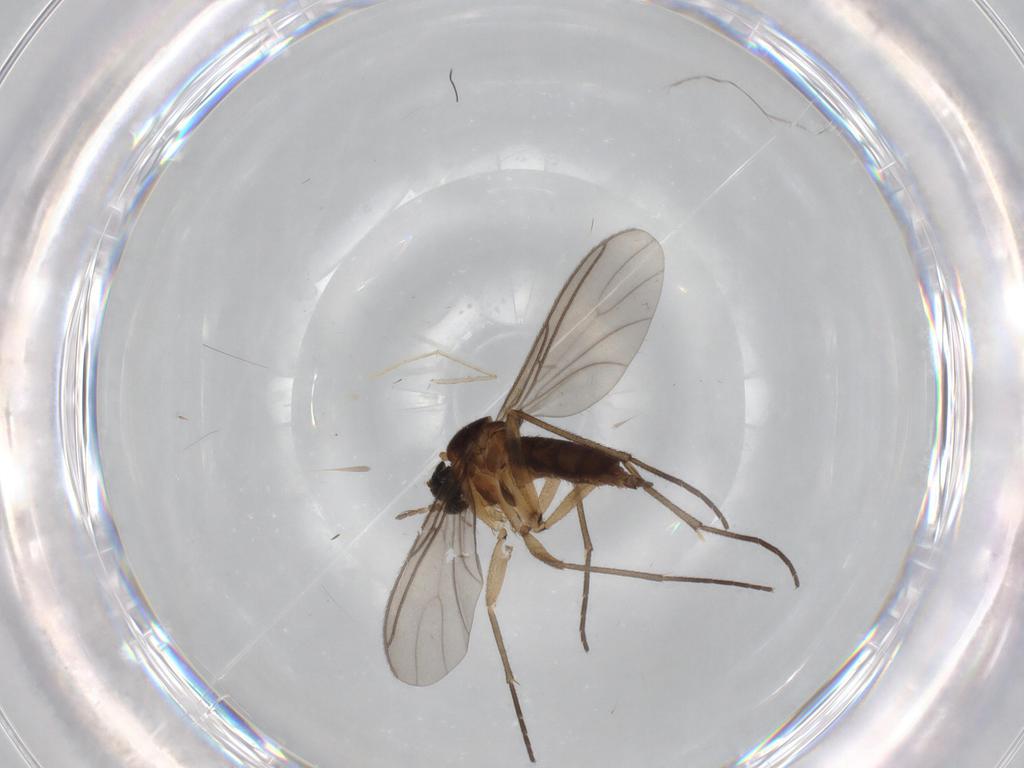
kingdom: Animalia
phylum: Arthropoda
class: Insecta
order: Diptera
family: Sciaridae
